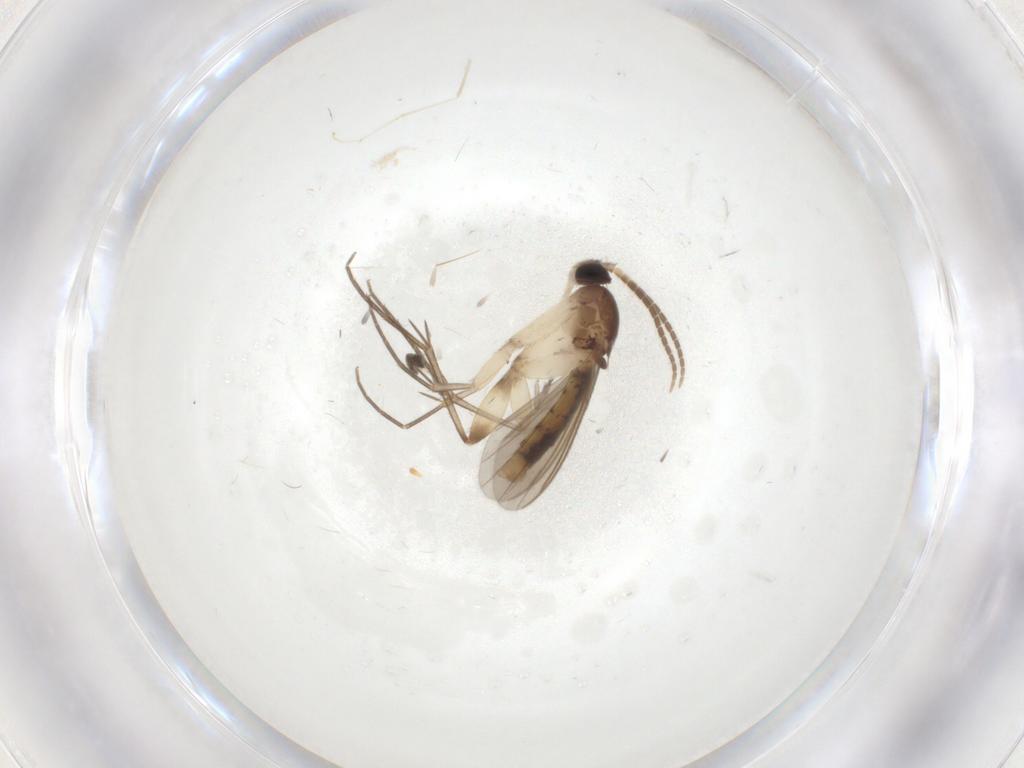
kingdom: Animalia
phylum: Arthropoda
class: Insecta
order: Diptera
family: Mycetophilidae
